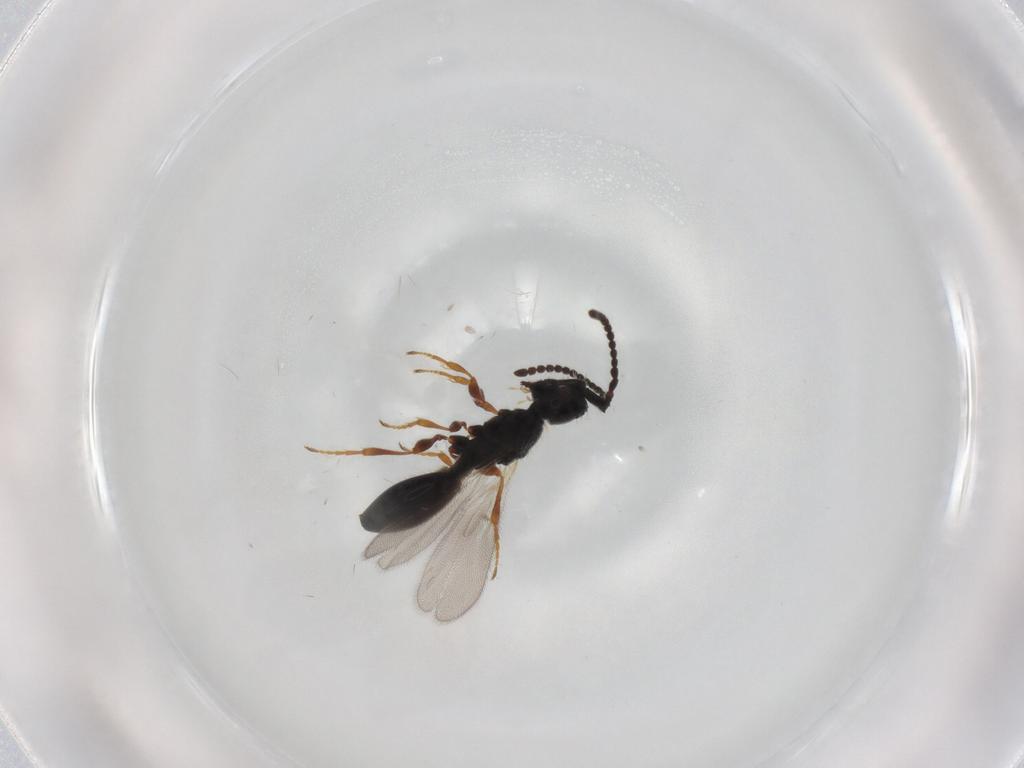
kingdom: Animalia
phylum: Arthropoda
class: Insecta
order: Hymenoptera
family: Diapriidae
